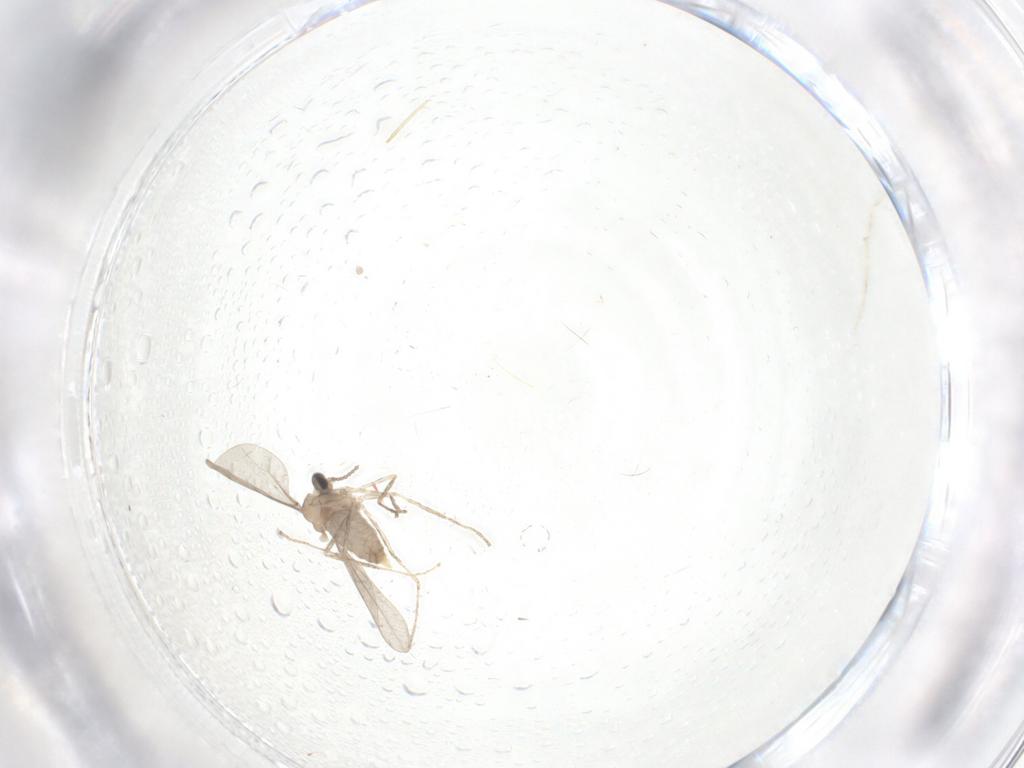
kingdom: Animalia
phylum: Arthropoda
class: Insecta
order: Diptera
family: Cecidomyiidae
